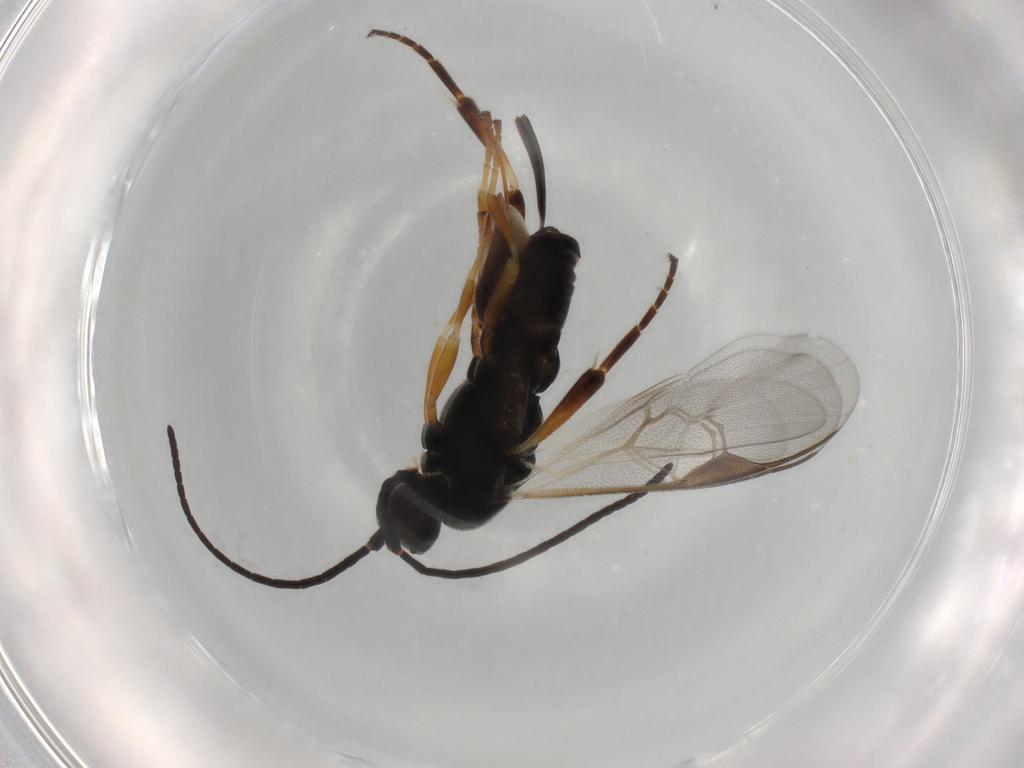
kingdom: Animalia
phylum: Arthropoda
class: Insecta
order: Hymenoptera
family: Braconidae
